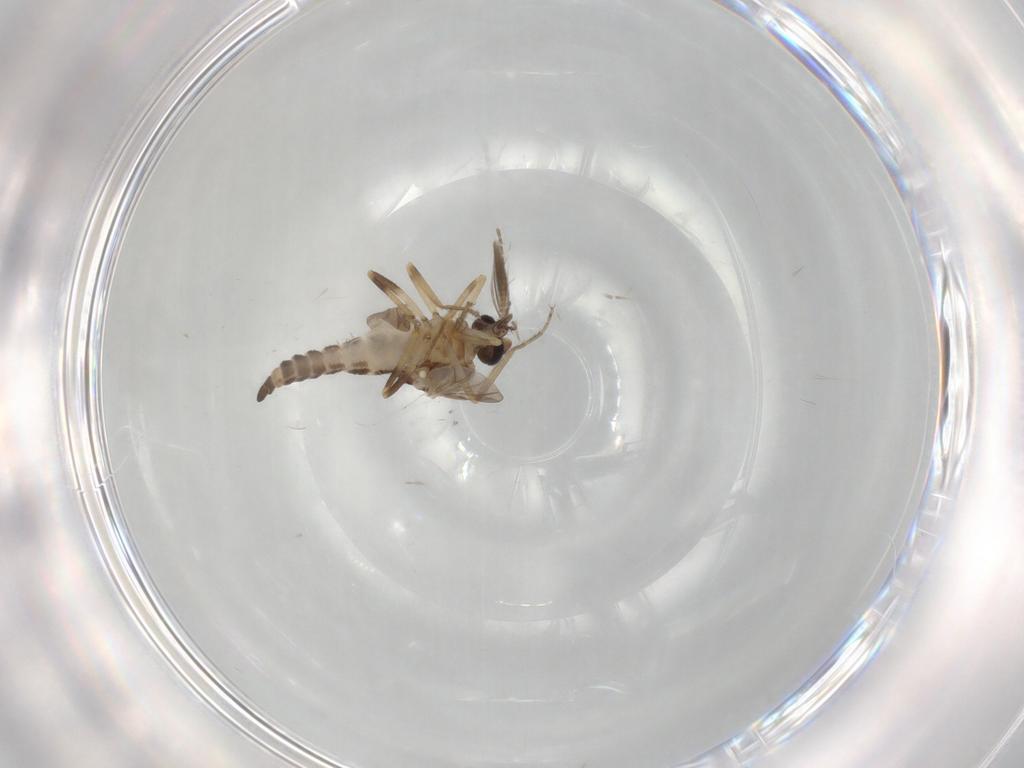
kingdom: Animalia
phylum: Arthropoda
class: Insecta
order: Diptera
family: Ceratopogonidae
